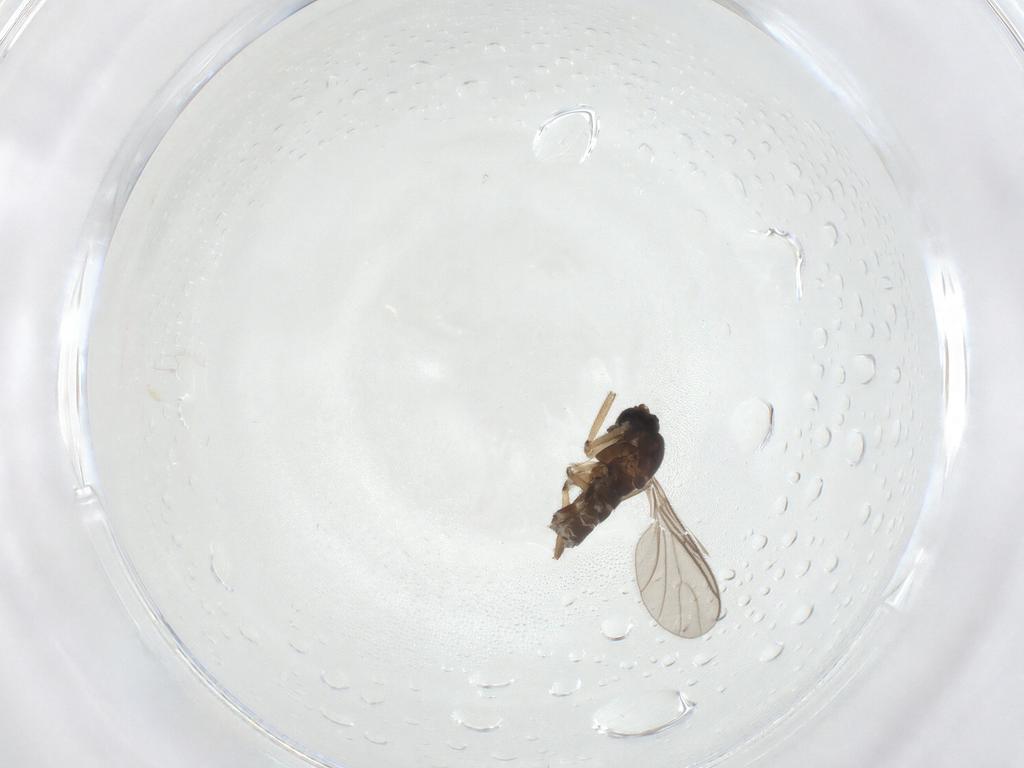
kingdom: Animalia
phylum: Arthropoda
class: Insecta
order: Diptera
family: Sciaridae
